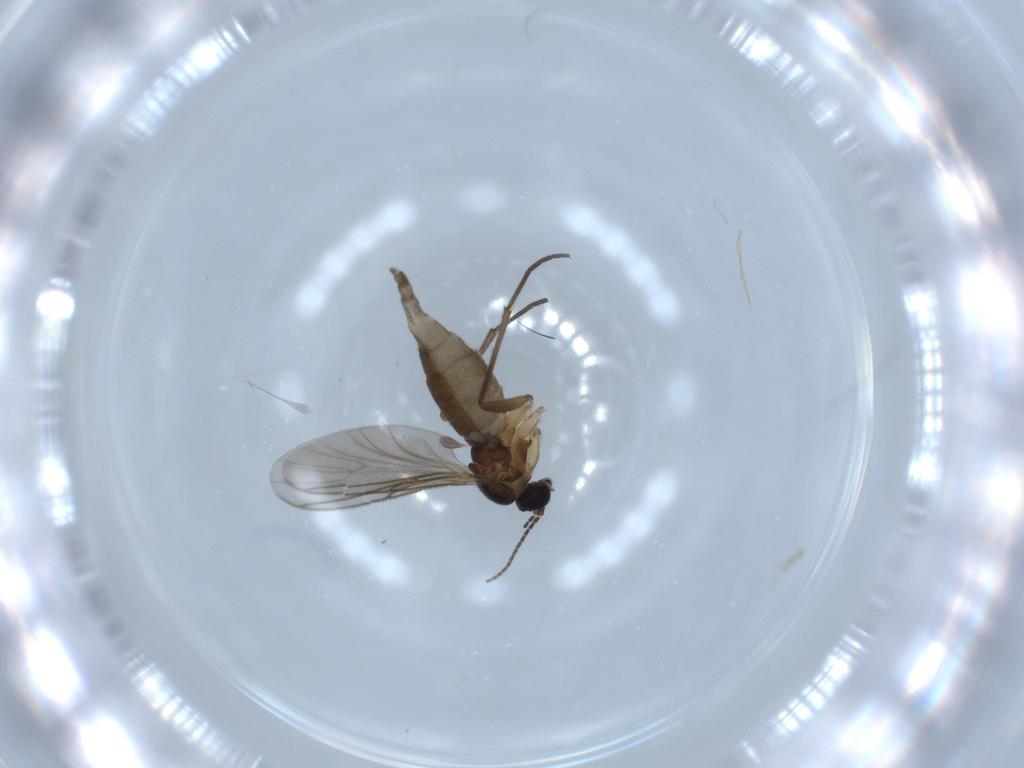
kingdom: Animalia
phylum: Arthropoda
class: Insecta
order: Diptera
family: Sciaridae
